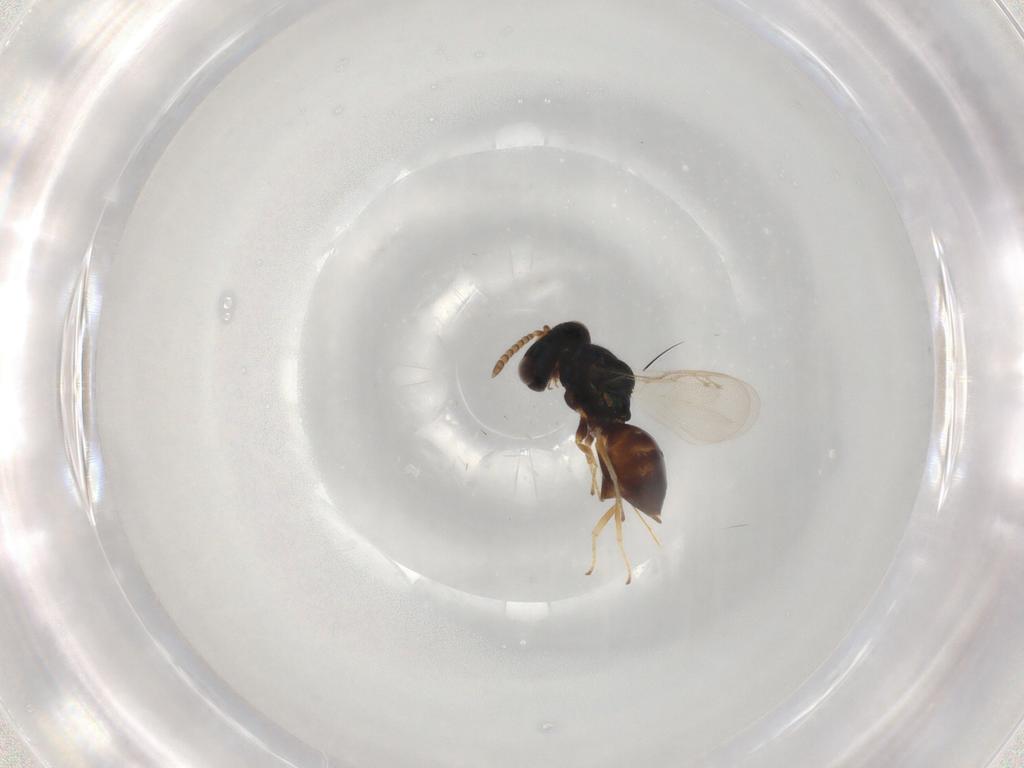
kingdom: Animalia
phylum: Arthropoda
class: Insecta
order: Hymenoptera
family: Pteromalidae
